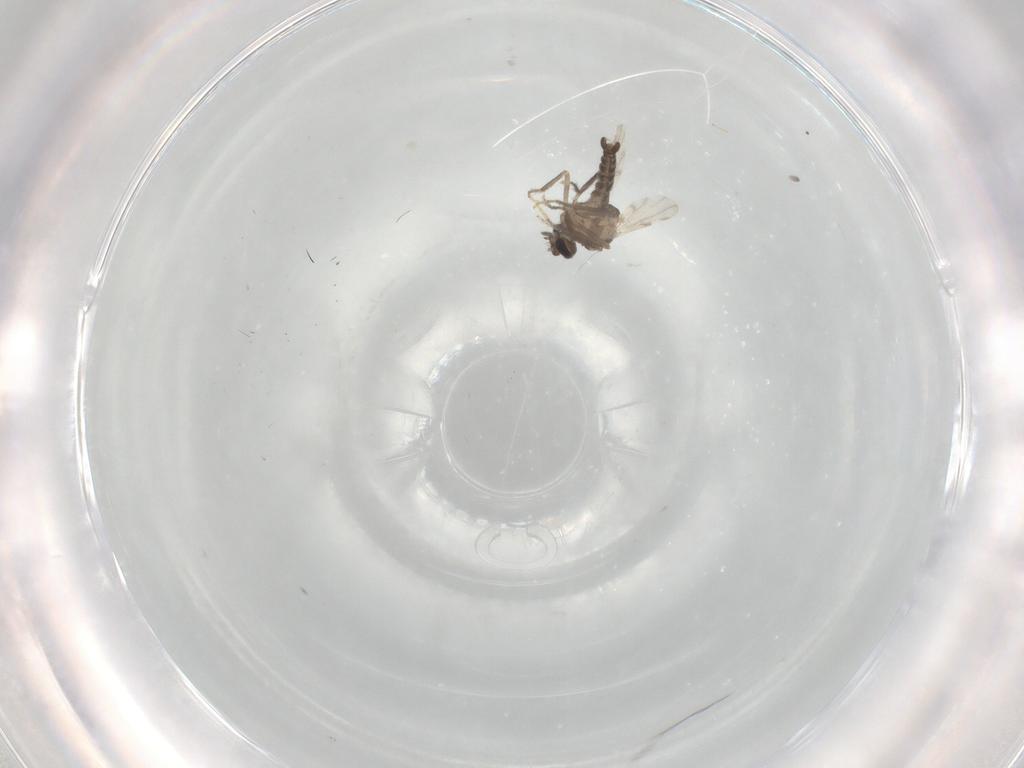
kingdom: Animalia
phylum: Arthropoda
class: Insecta
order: Diptera
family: Ceratopogonidae
